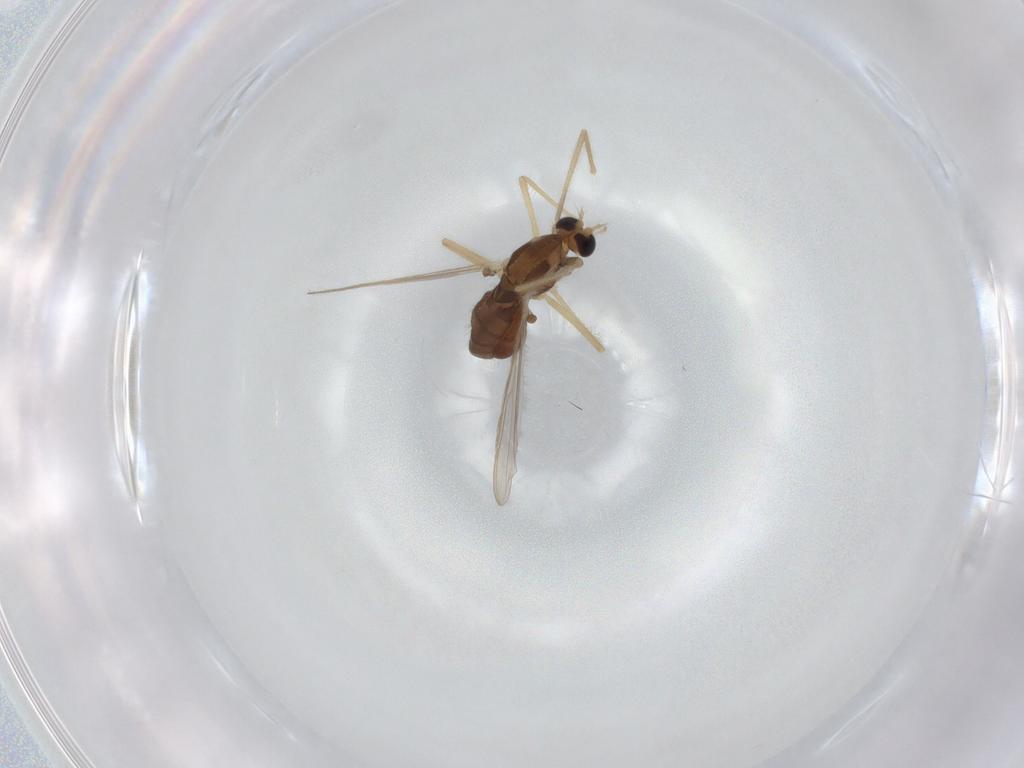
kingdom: Animalia
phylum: Arthropoda
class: Insecta
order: Diptera
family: Chironomidae
